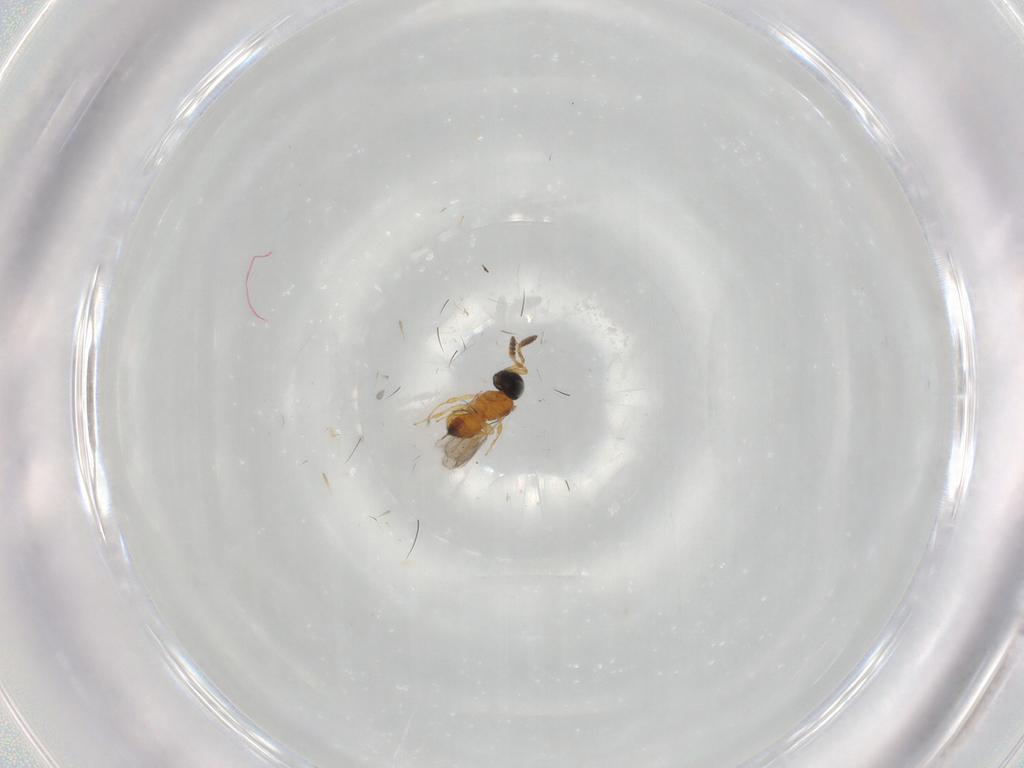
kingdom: Animalia
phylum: Arthropoda
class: Insecta
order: Hymenoptera
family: Scelionidae
